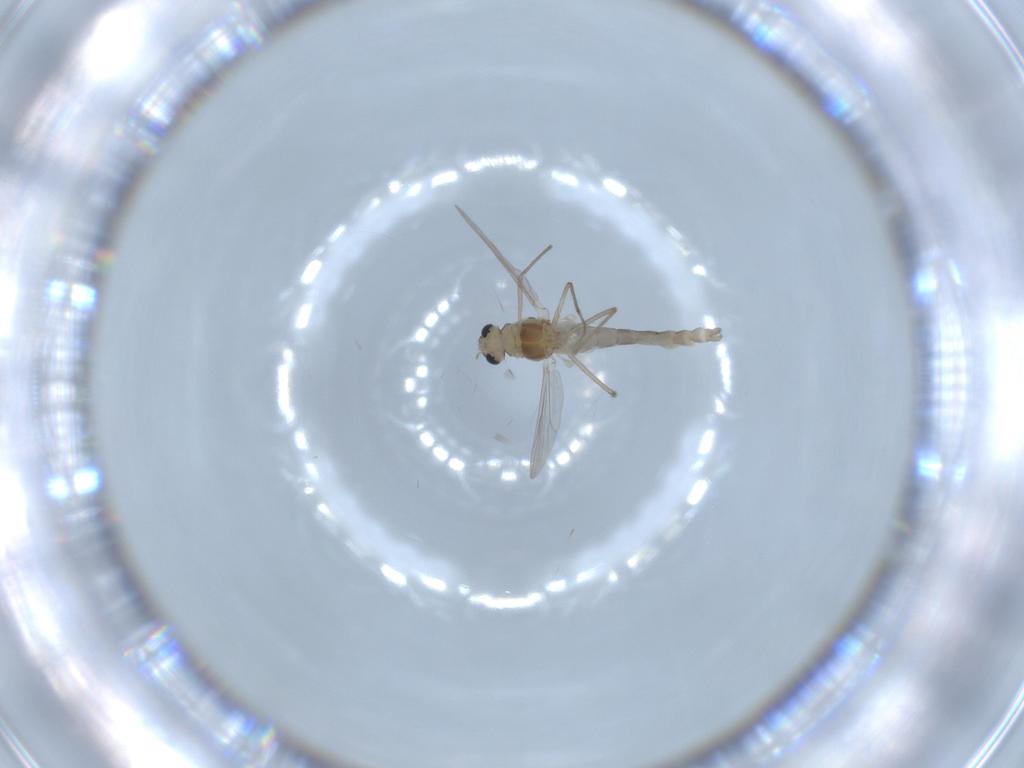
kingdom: Animalia
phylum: Arthropoda
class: Insecta
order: Diptera
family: Chironomidae
